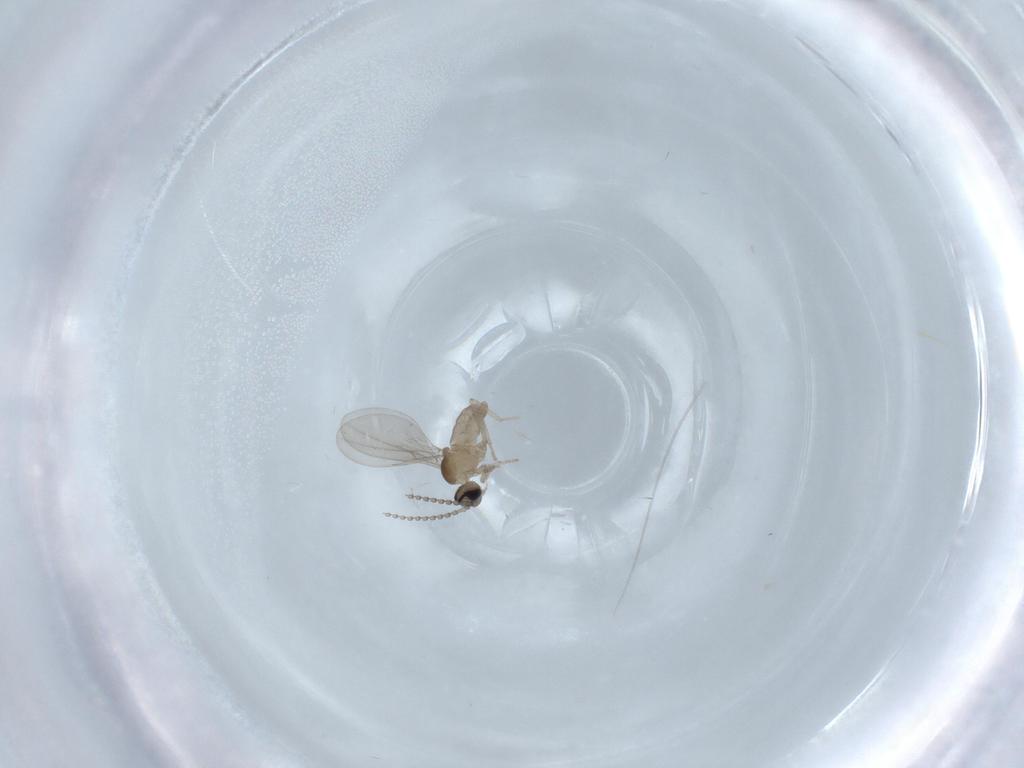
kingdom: Animalia
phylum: Arthropoda
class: Insecta
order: Diptera
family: Cecidomyiidae
